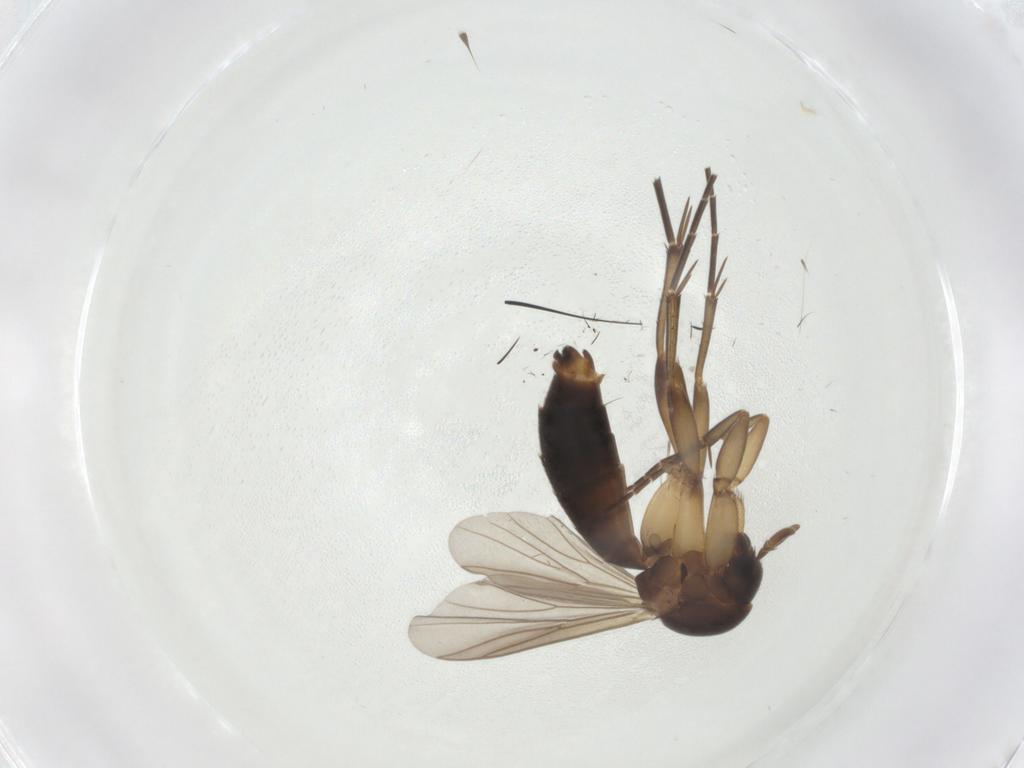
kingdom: Animalia
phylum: Arthropoda
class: Insecta
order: Diptera
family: Mycetophilidae
